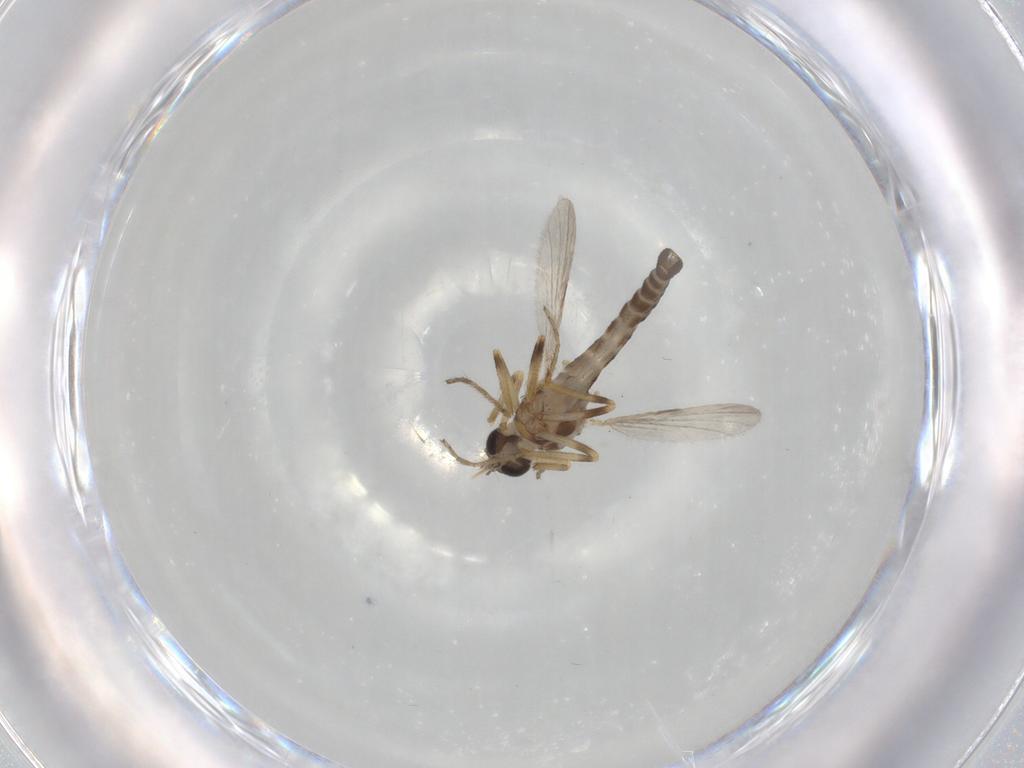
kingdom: Animalia
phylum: Arthropoda
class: Insecta
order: Diptera
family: Ceratopogonidae
